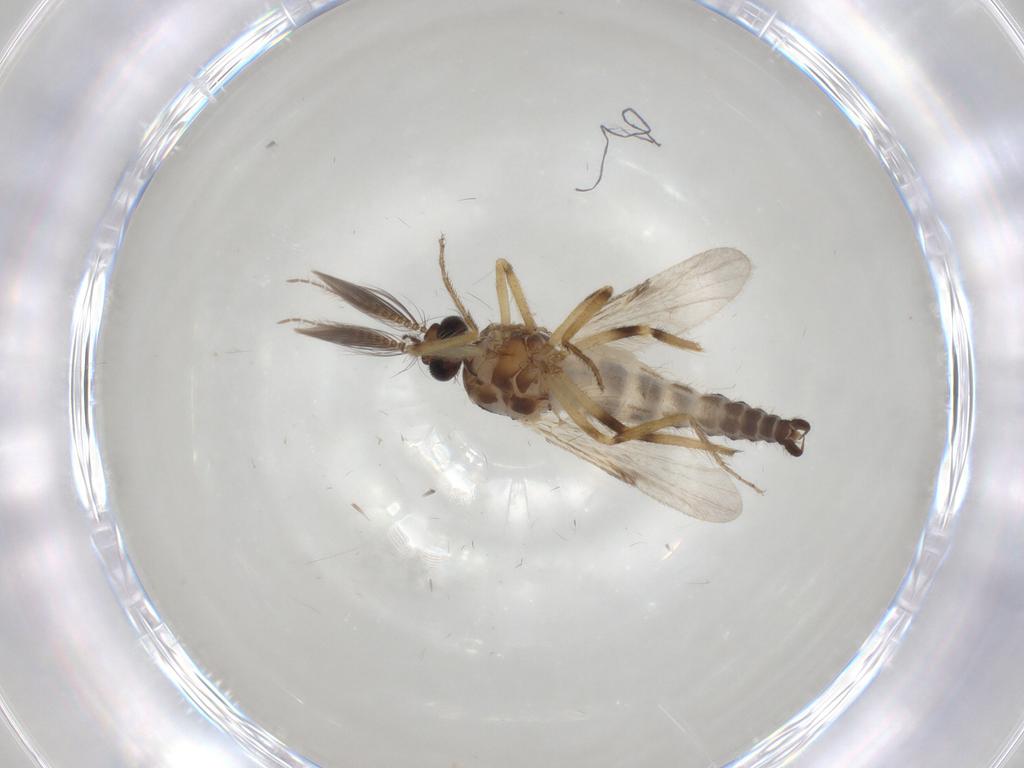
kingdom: Animalia
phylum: Arthropoda
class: Insecta
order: Diptera
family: Ceratopogonidae
